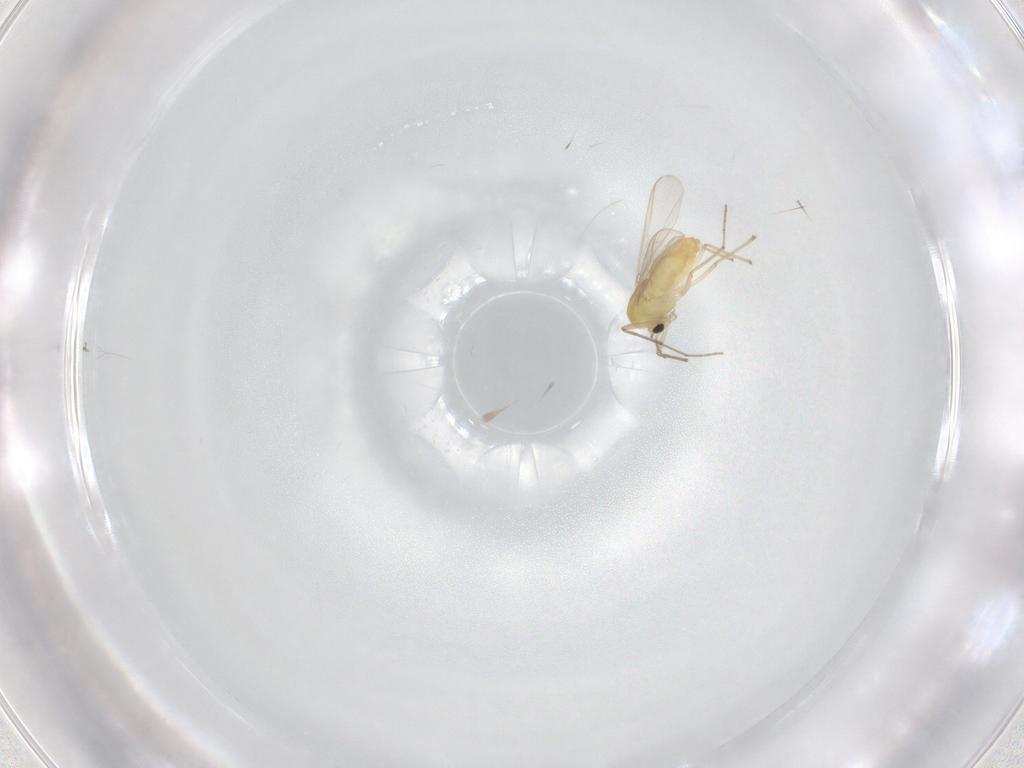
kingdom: Animalia
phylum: Arthropoda
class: Insecta
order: Diptera
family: Chironomidae
